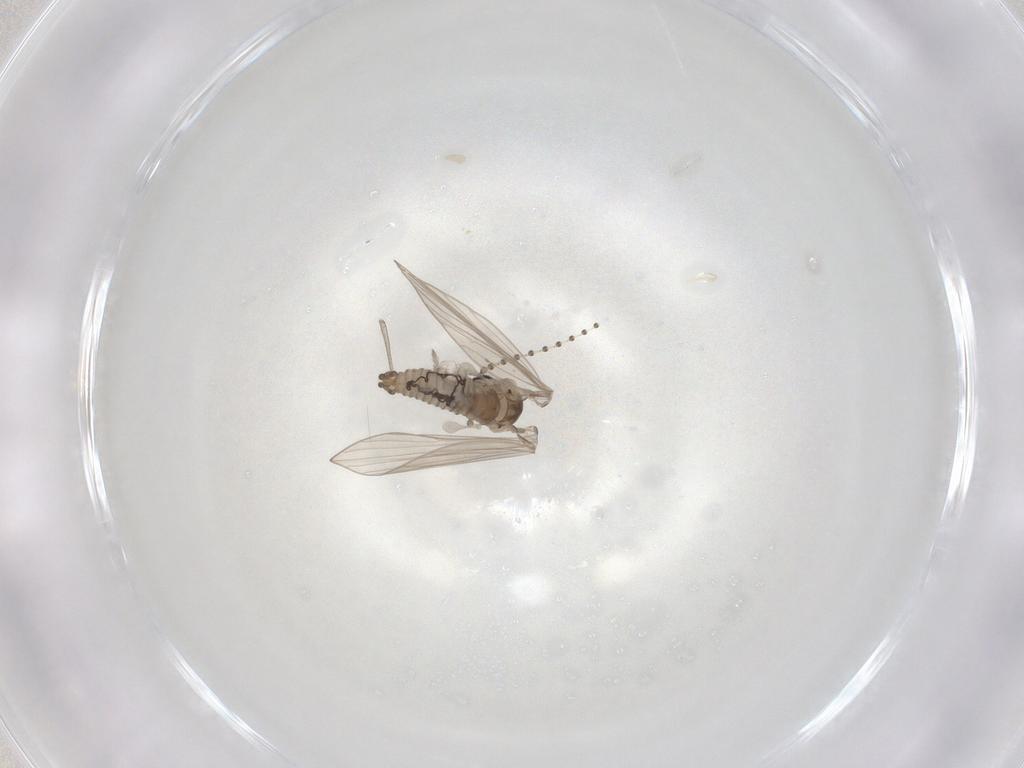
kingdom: Animalia
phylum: Arthropoda
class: Insecta
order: Diptera
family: Psychodidae
